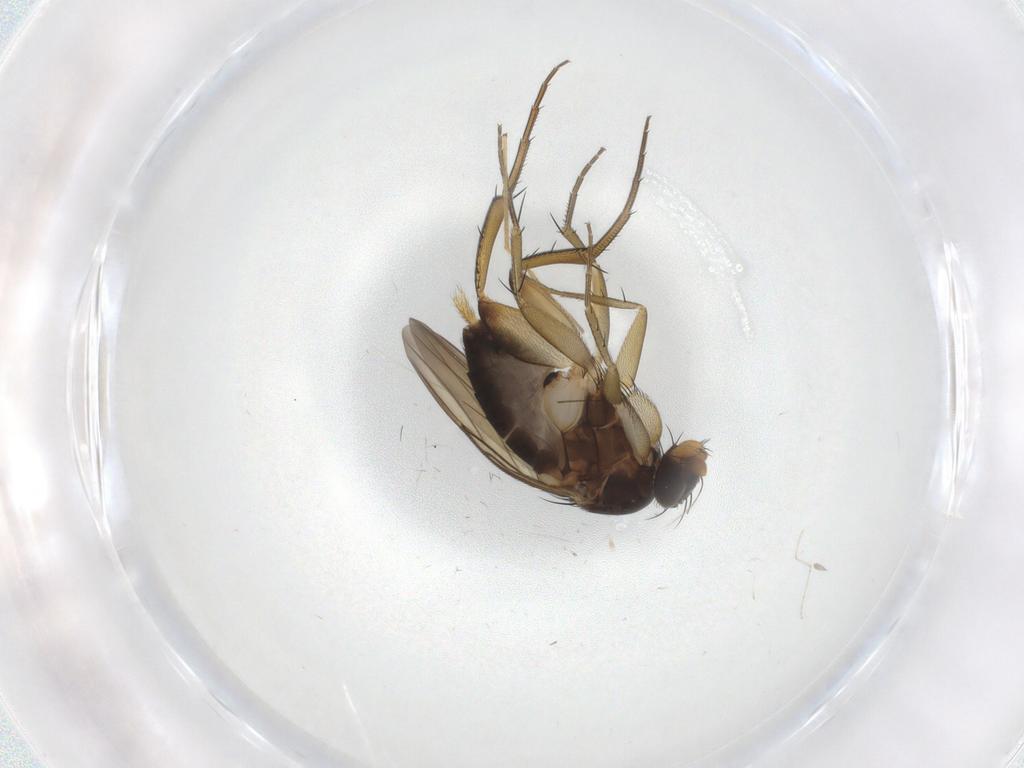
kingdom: Animalia
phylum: Arthropoda
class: Insecta
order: Diptera
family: Phoridae
